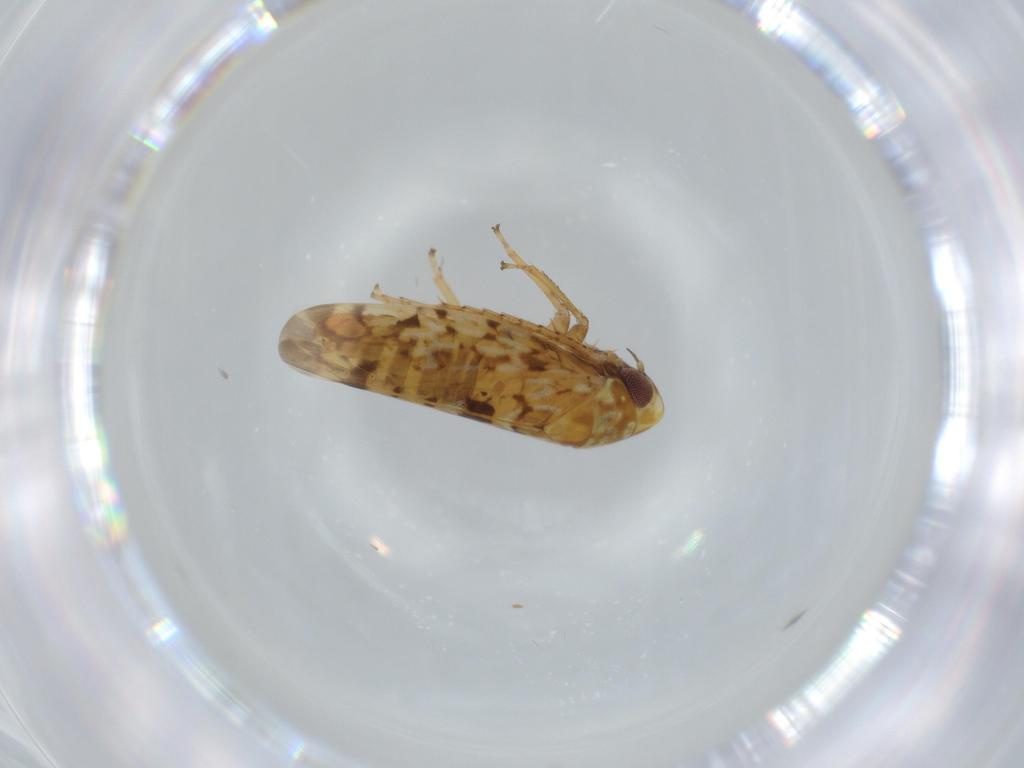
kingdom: Animalia
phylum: Arthropoda
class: Insecta
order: Hemiptera
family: Cicadellidae
